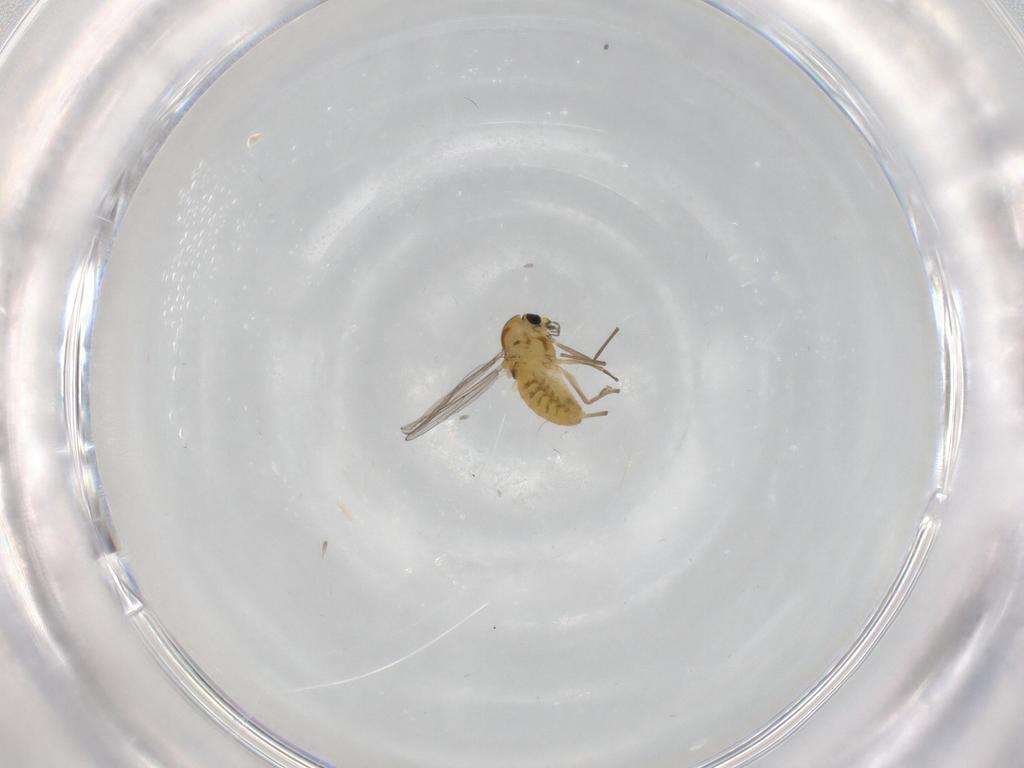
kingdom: Animalia
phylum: Arthropoda
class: Insecta
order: Diptera
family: Chironomidae
